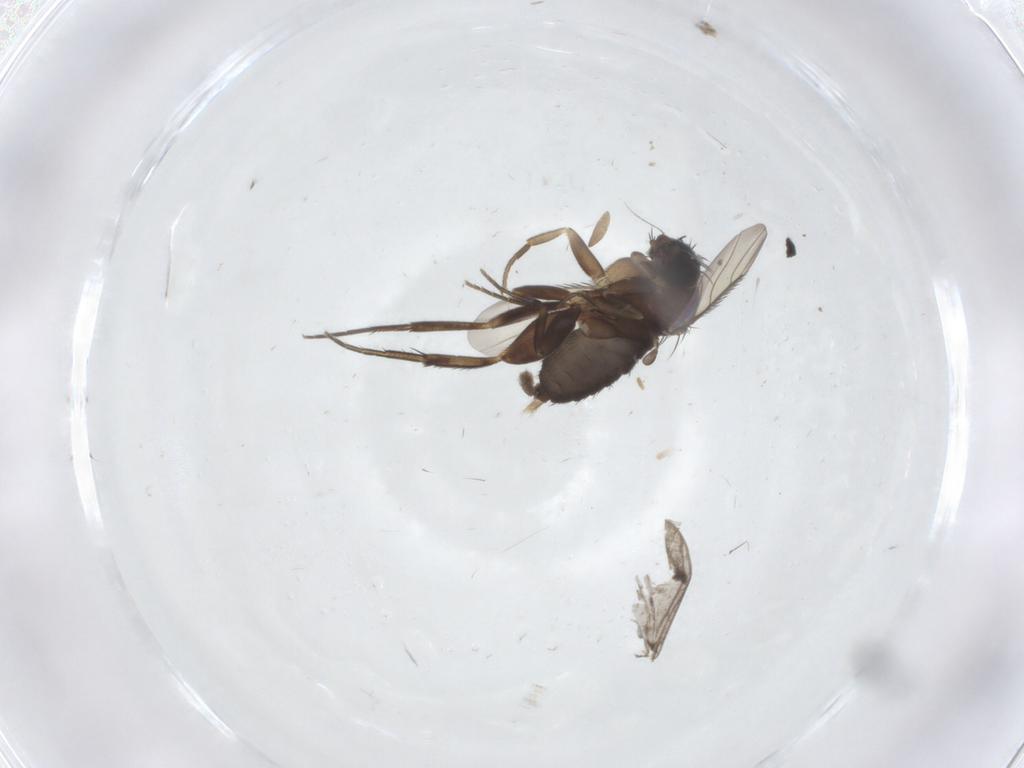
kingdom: Animalia
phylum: Arthropoda
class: Insecta
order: Diptera
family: Phoridae
